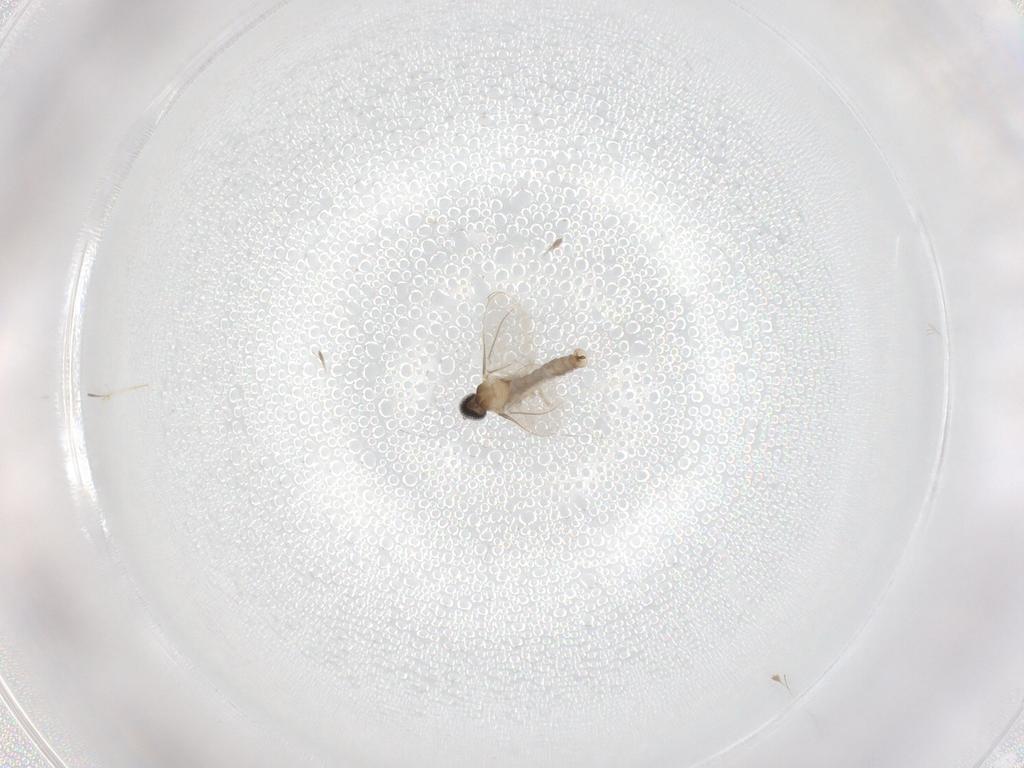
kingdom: Animalia
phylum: Arthropoda
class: Insecta
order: Diptera
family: Cecidomyiidae
